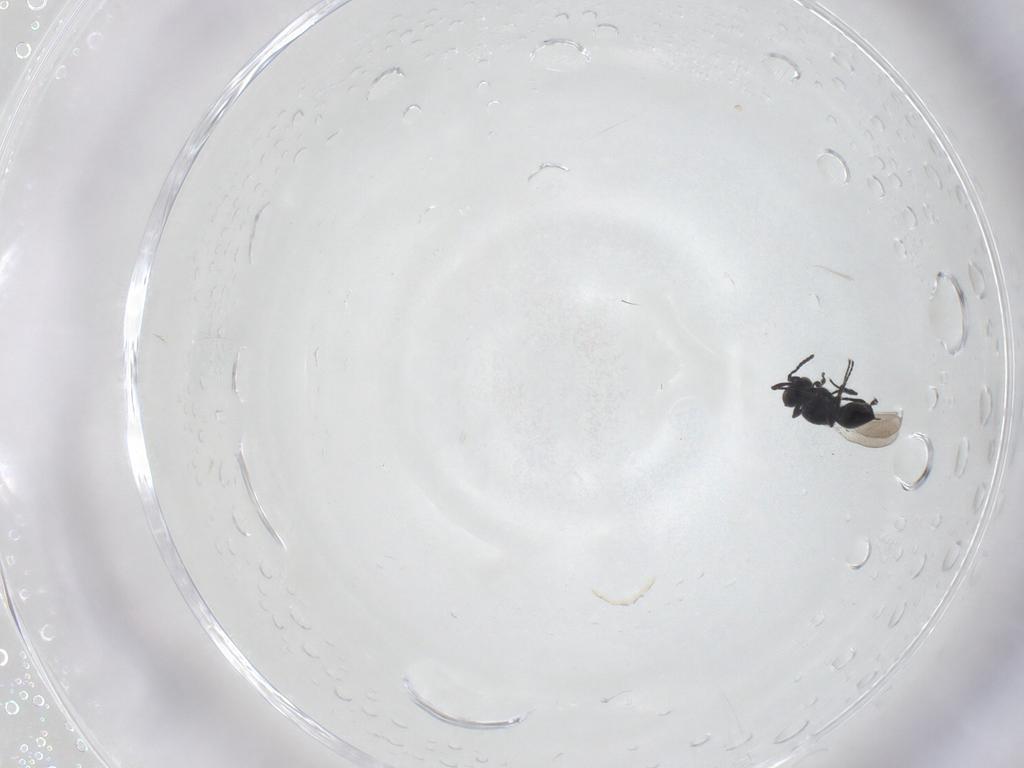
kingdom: Animalia
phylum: Arthropoda
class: Insecta
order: Hymenoptera
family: Platygastridae
